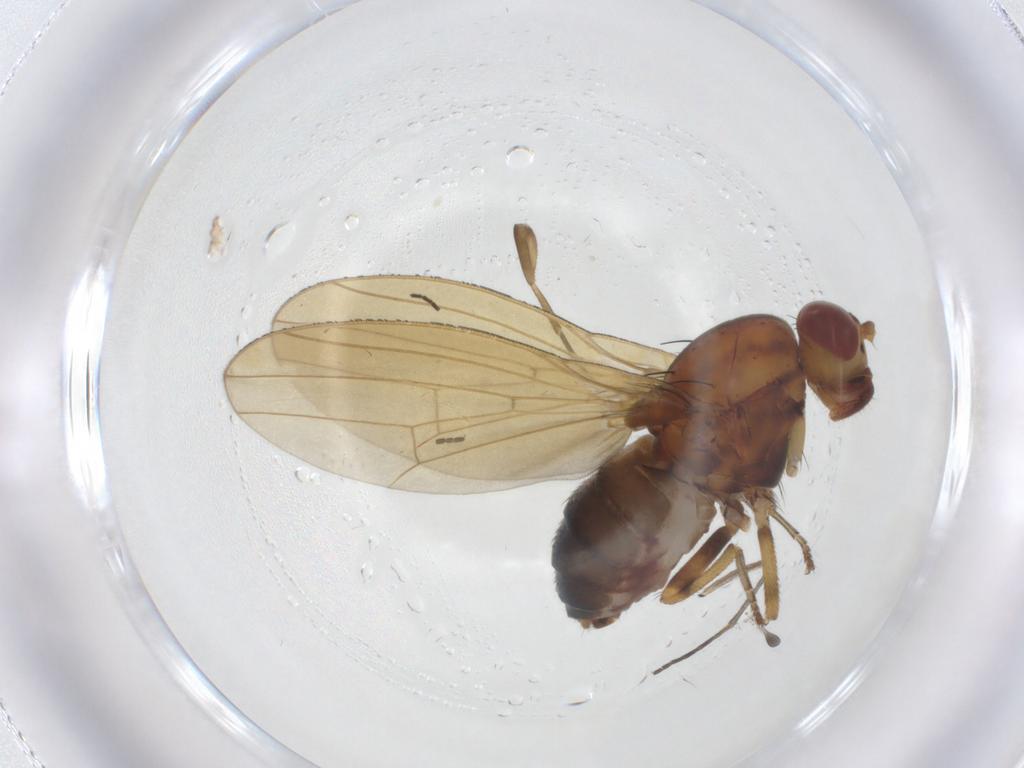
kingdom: Animalia
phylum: Arthropoda
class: Insecta
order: Diptera
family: Phoridae
